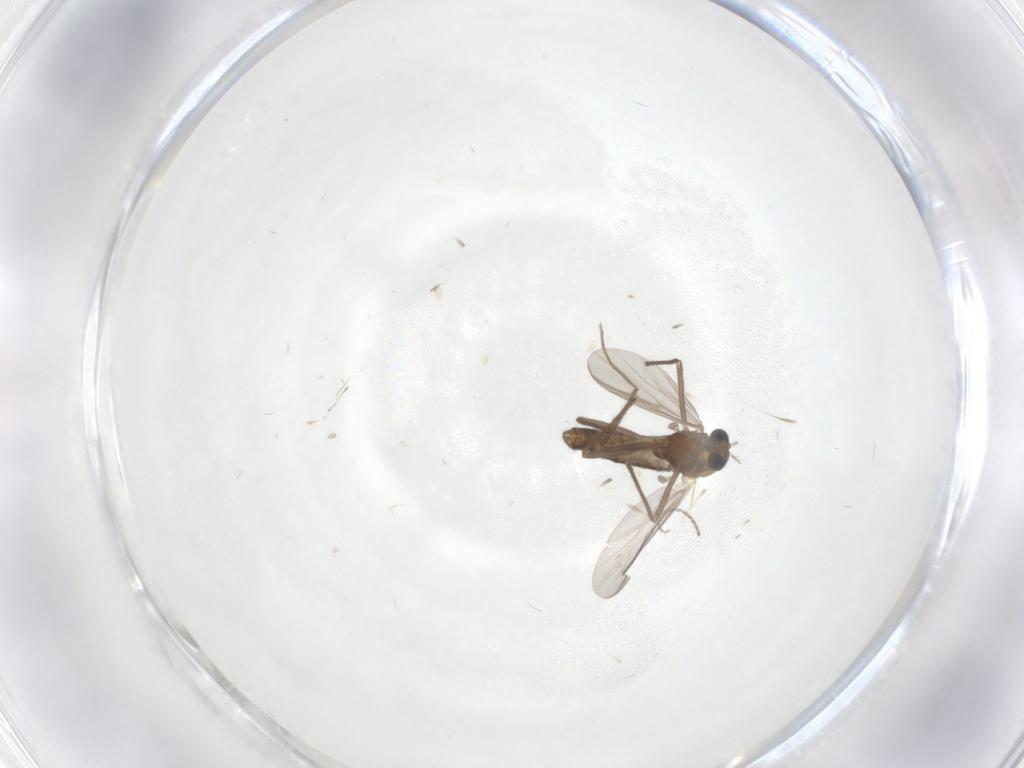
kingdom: Animalia
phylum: Arthropoda
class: Insecta
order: Diptera
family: Chironomidae
